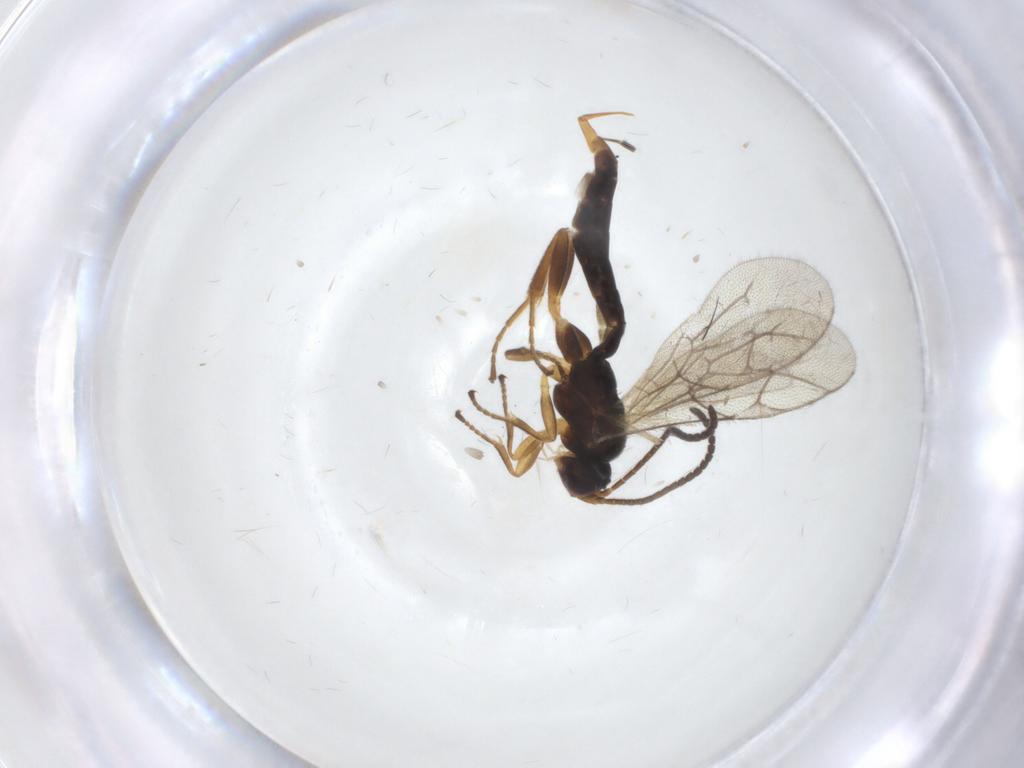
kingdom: Animalia
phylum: Arthropoda
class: Insecta
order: Hymenoptera
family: Ichneumonidae
